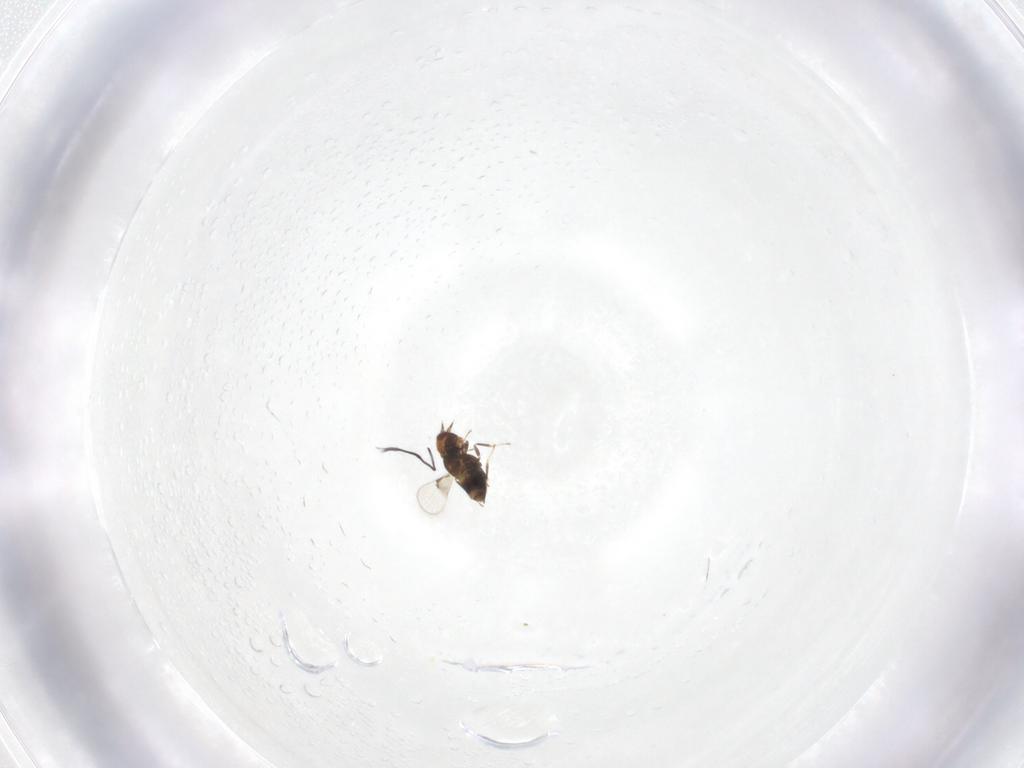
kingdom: Animalia
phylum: Arthropoda
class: Insecta
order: Hymenoptera
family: Trichogrammatidae
